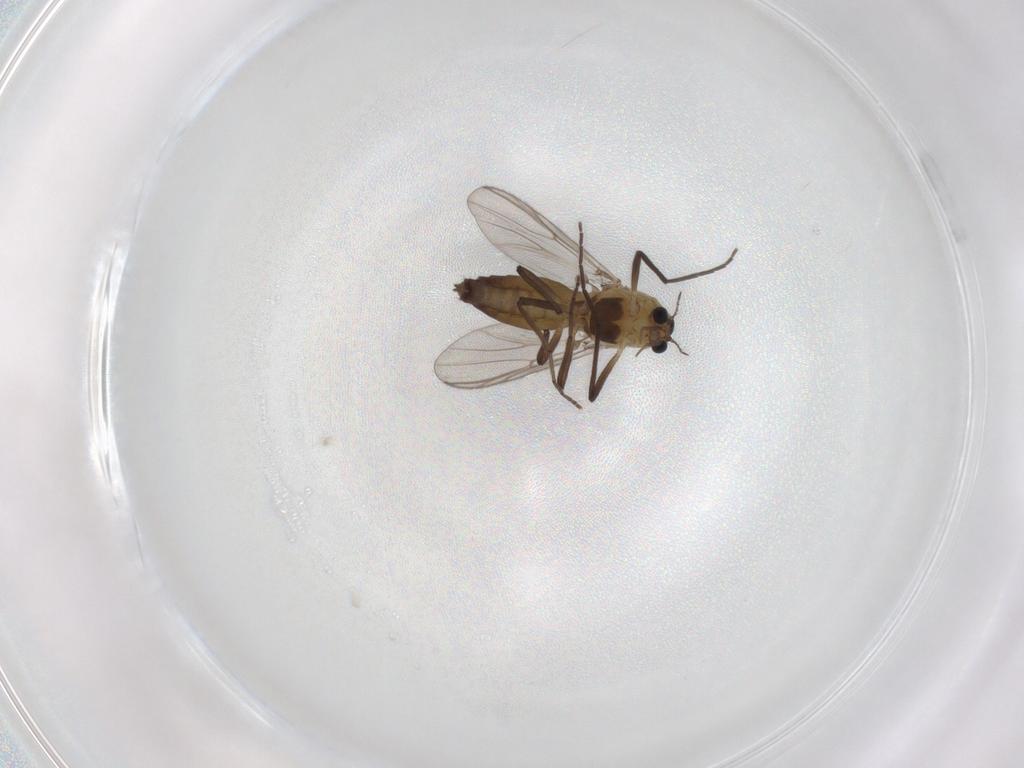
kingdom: Animalia
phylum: Arthropoda
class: Insecta
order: Diptera
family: Chironomidae
